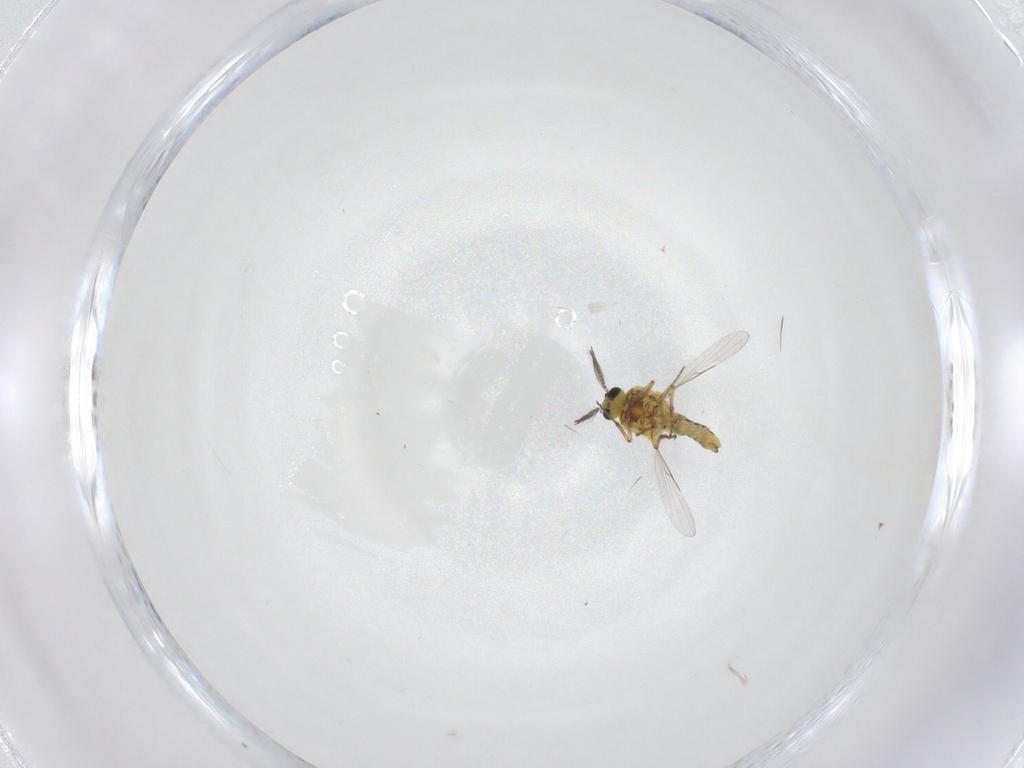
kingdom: Animalia
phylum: Arthropoda
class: Insecta
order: Diptera
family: Ceratopogonidae
